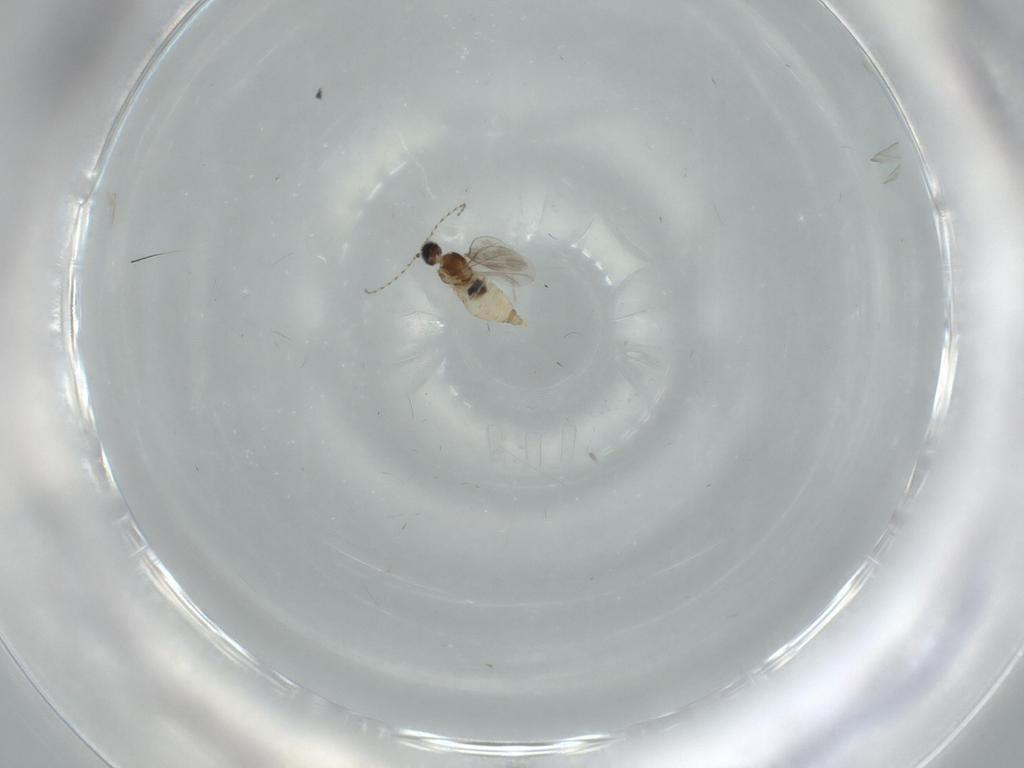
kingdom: Animalia
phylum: Arthropoda
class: Insecta
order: Diptera
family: Cecidomyiidae
